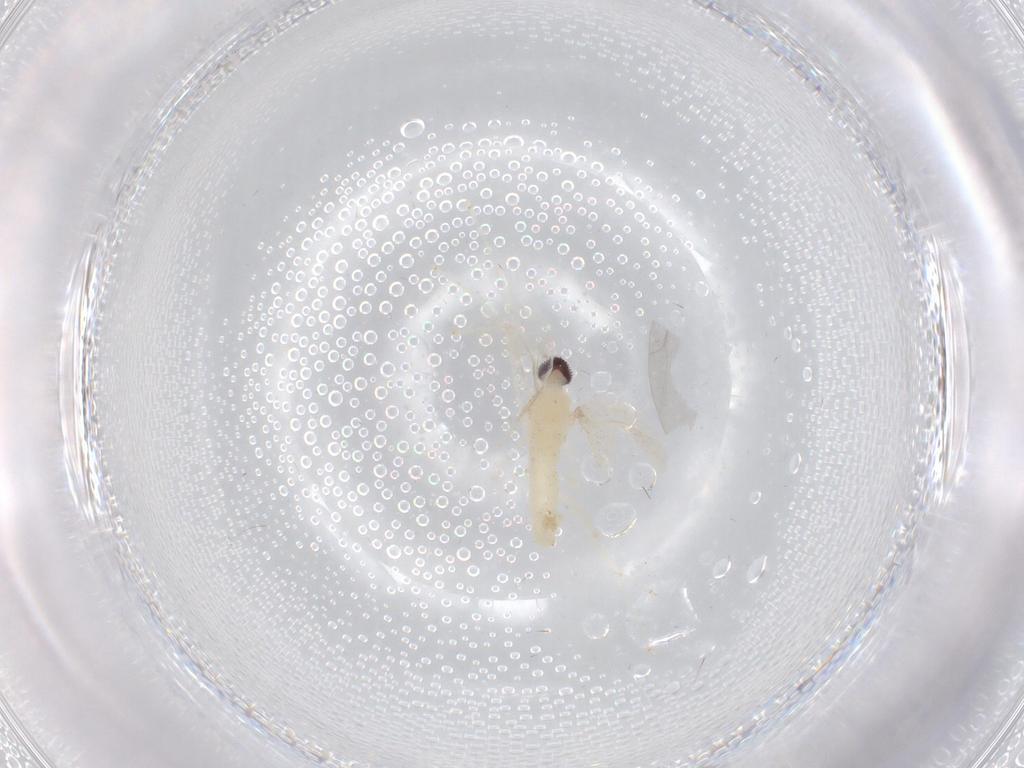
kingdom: Animalia
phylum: Arthropoda
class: Insecta
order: Diptera
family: Cecidomyiidae
